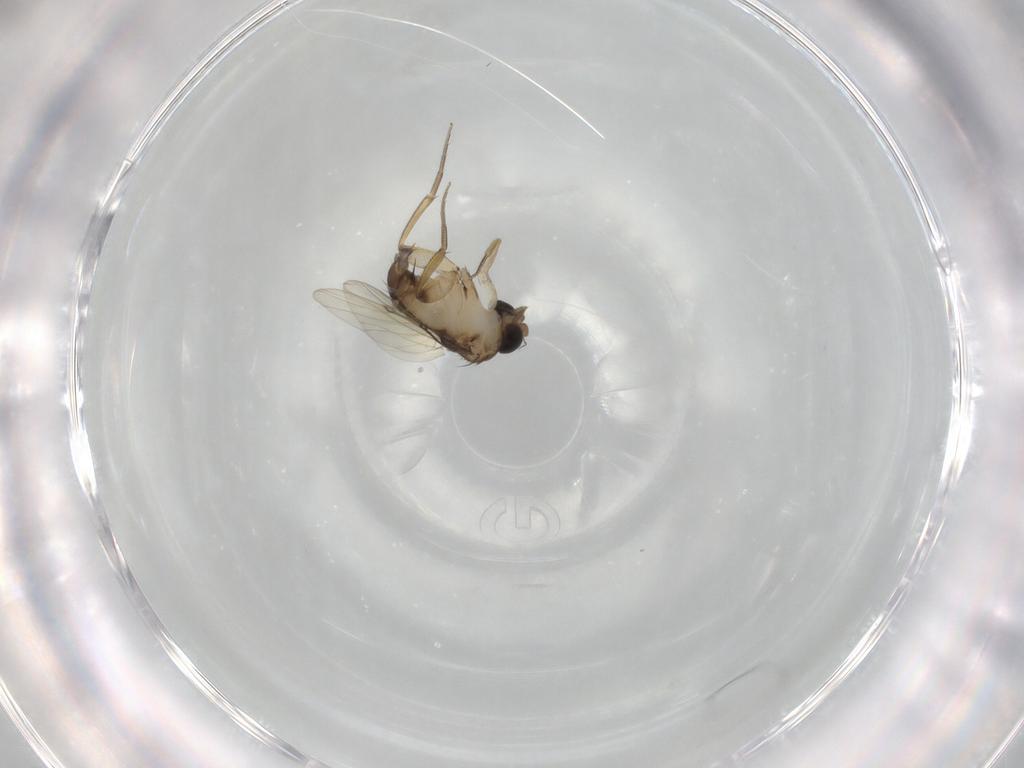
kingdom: Animalia
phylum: Arthropoda
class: Insecta
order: Diptera
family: Phoridae
